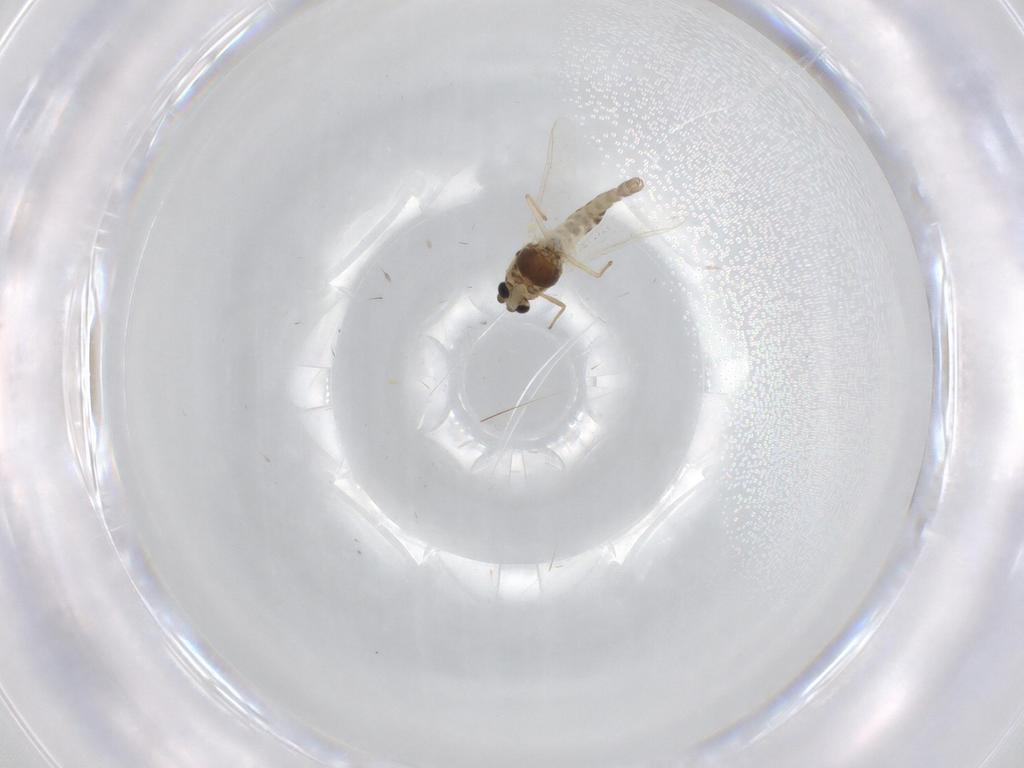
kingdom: Animalia
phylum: Arthropoda
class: Insecta
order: Diptera
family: Chironomidae
